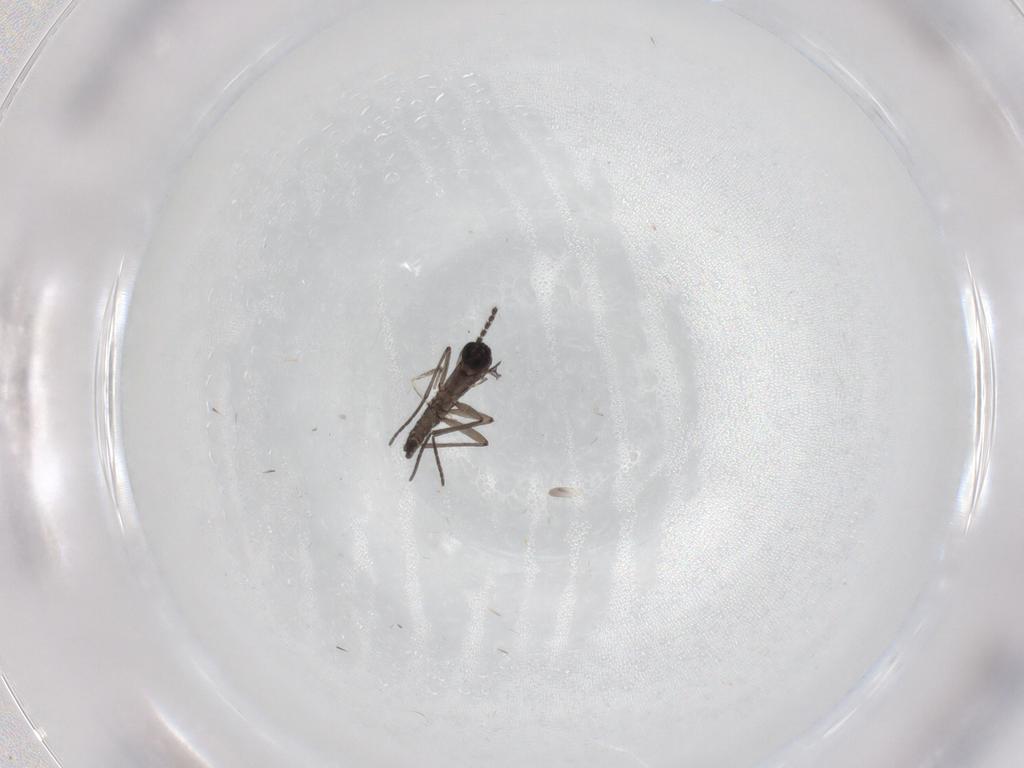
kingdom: Animalia
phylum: Arthropoda
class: Insecta
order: Diptera
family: Cecidomyiidae
